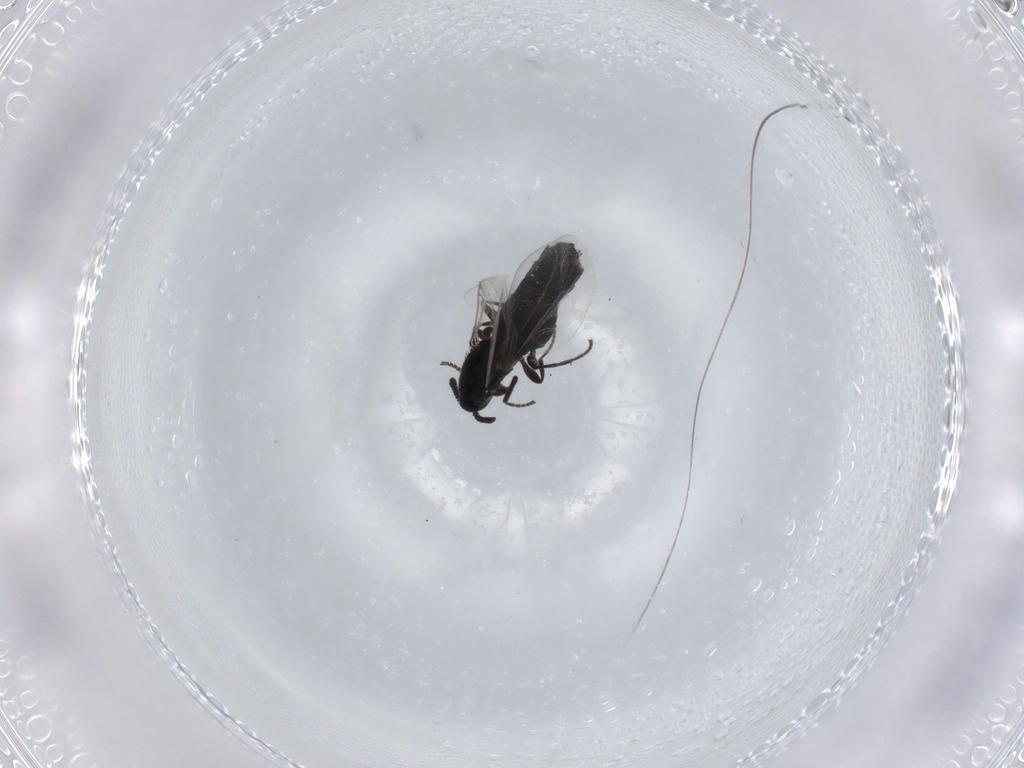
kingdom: Animalia
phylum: Arthropoda
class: Insecta
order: Diptera
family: Scatopsidae
